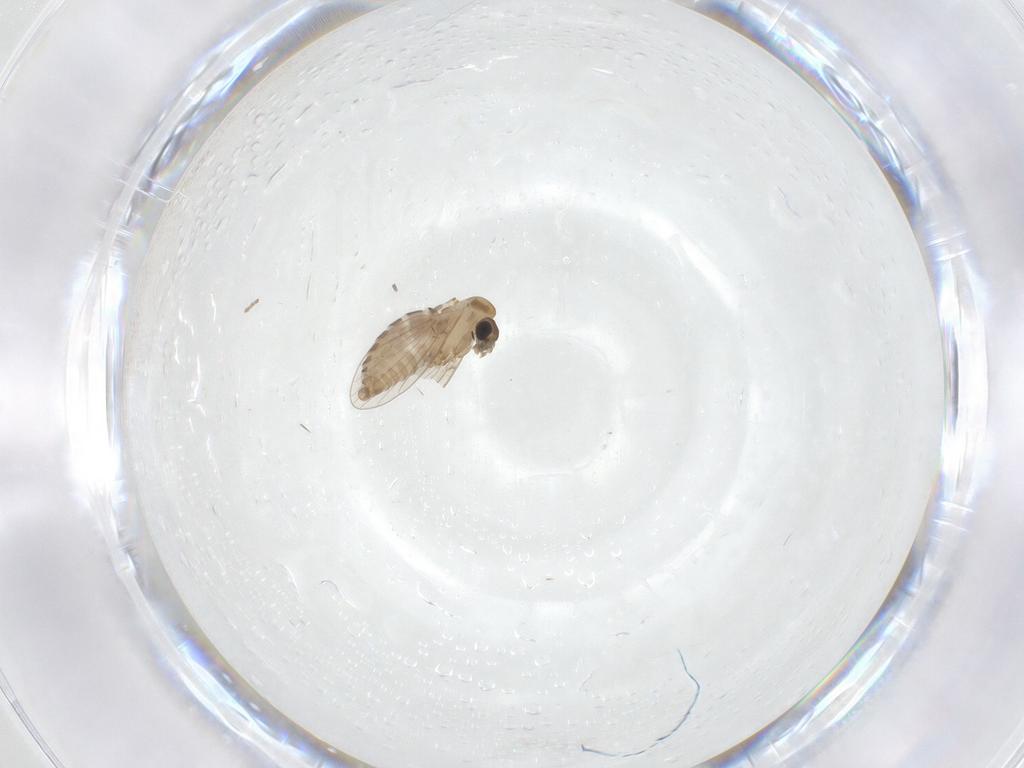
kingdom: Animalia
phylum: Arthropoda
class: Insecta
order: Diptera
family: Psychodidae
